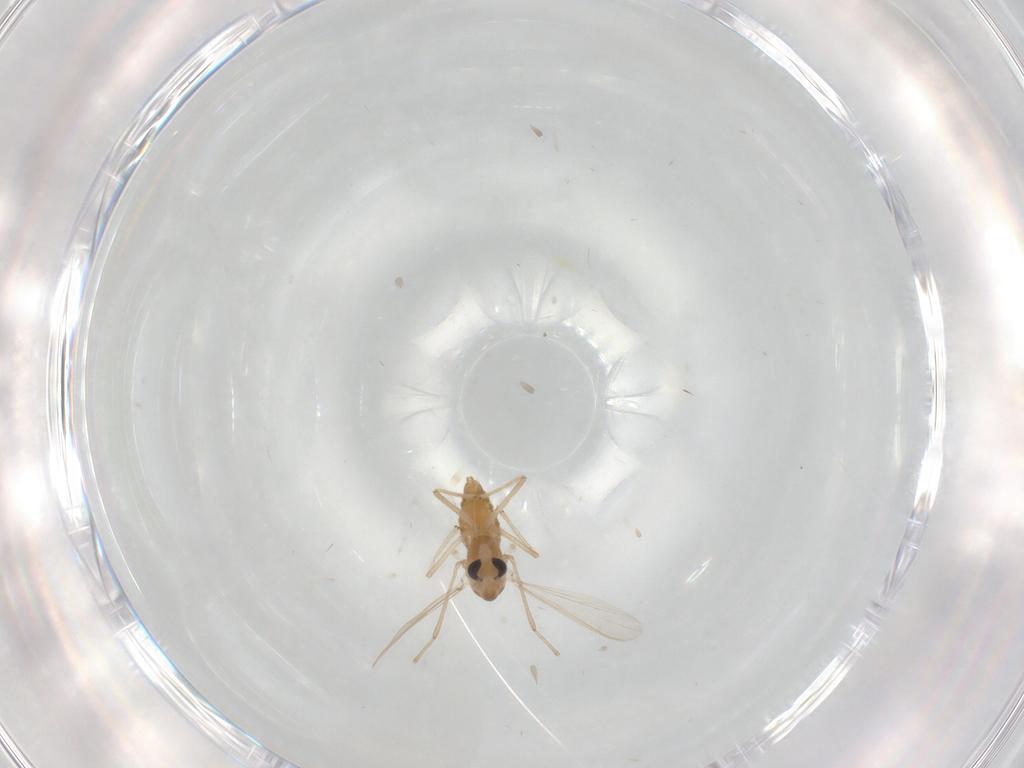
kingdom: Animalia
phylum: Arthropoda
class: Insecta
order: Diptera
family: Chironomidae
